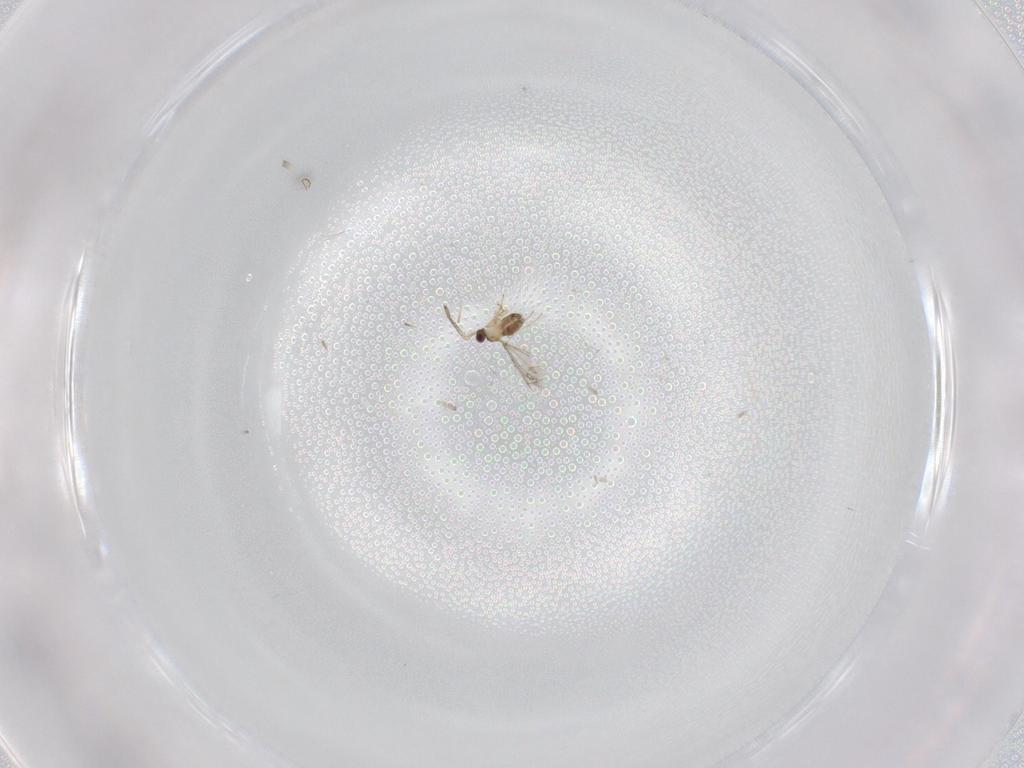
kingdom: Animalia
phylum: Arthropoda
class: Insecta
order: Hymenoptera
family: Mymaridae
